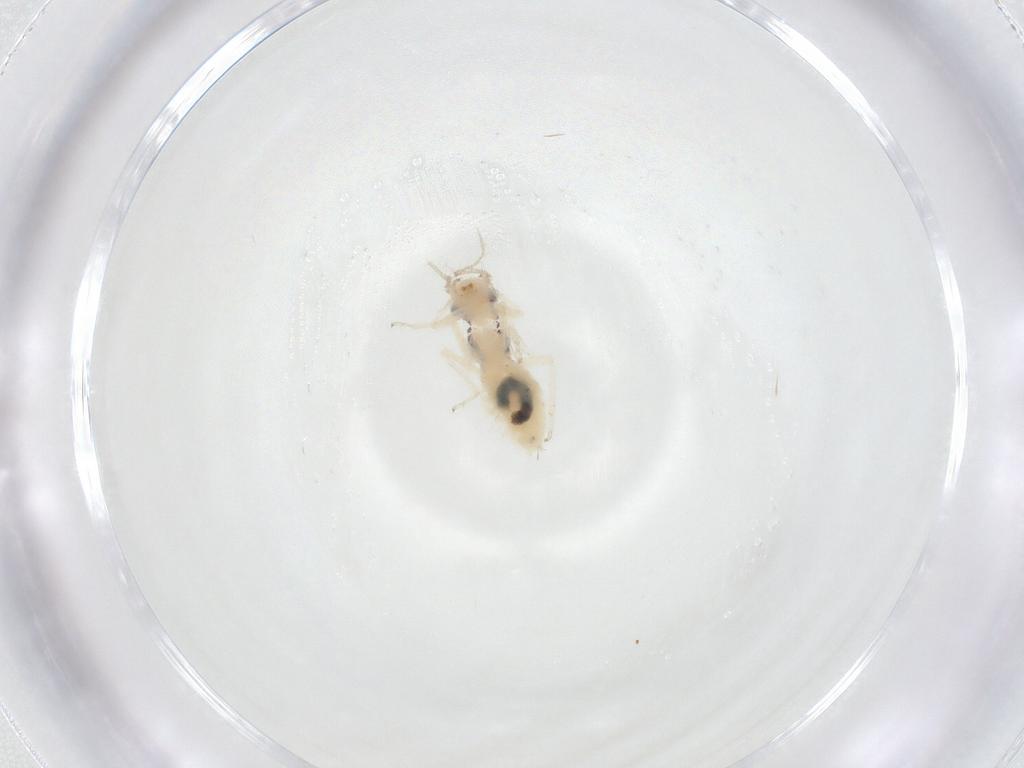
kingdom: Animalia
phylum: Arthropoda
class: Insecta
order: Psocodea
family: Caeciliusidae
